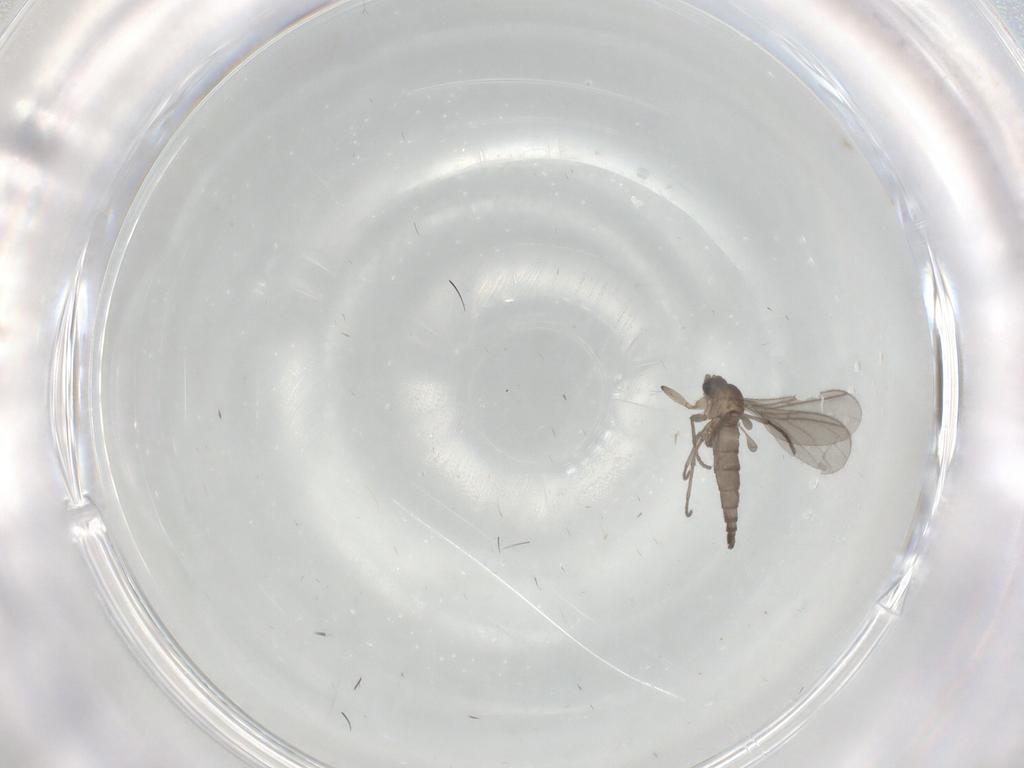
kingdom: Animalia
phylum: Arthropoda
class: Insecta
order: Diptera
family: Sciaridae
